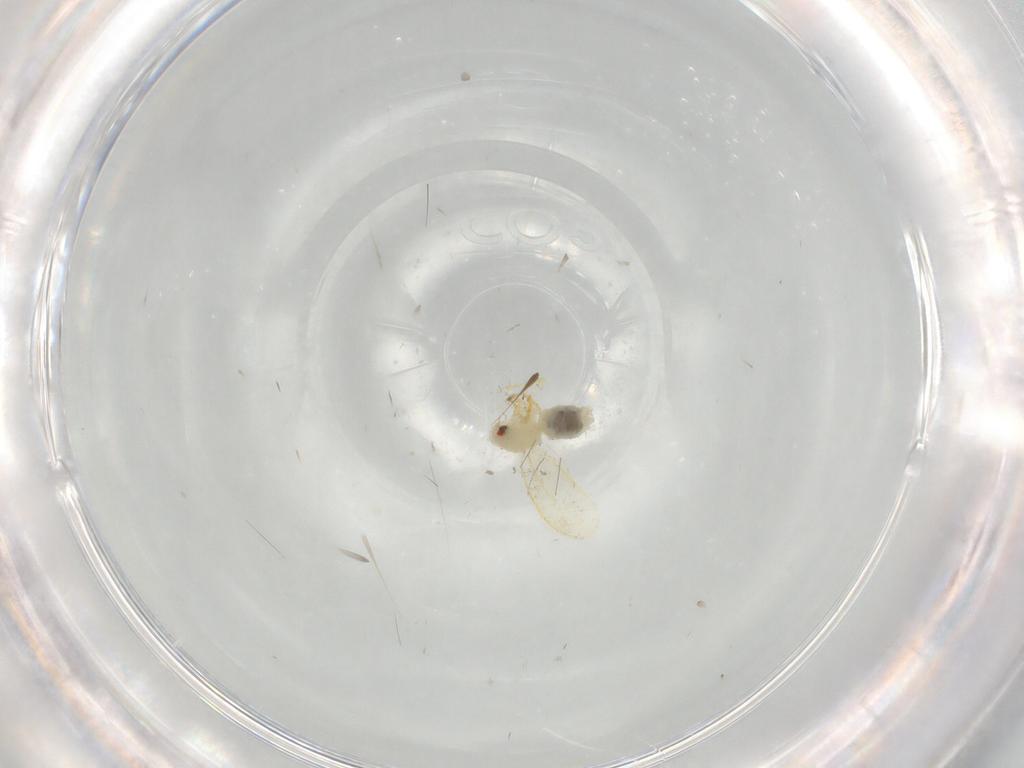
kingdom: Animalia
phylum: Arthropoda
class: Insecta
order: Hemiptera
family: Aleyrodidae
